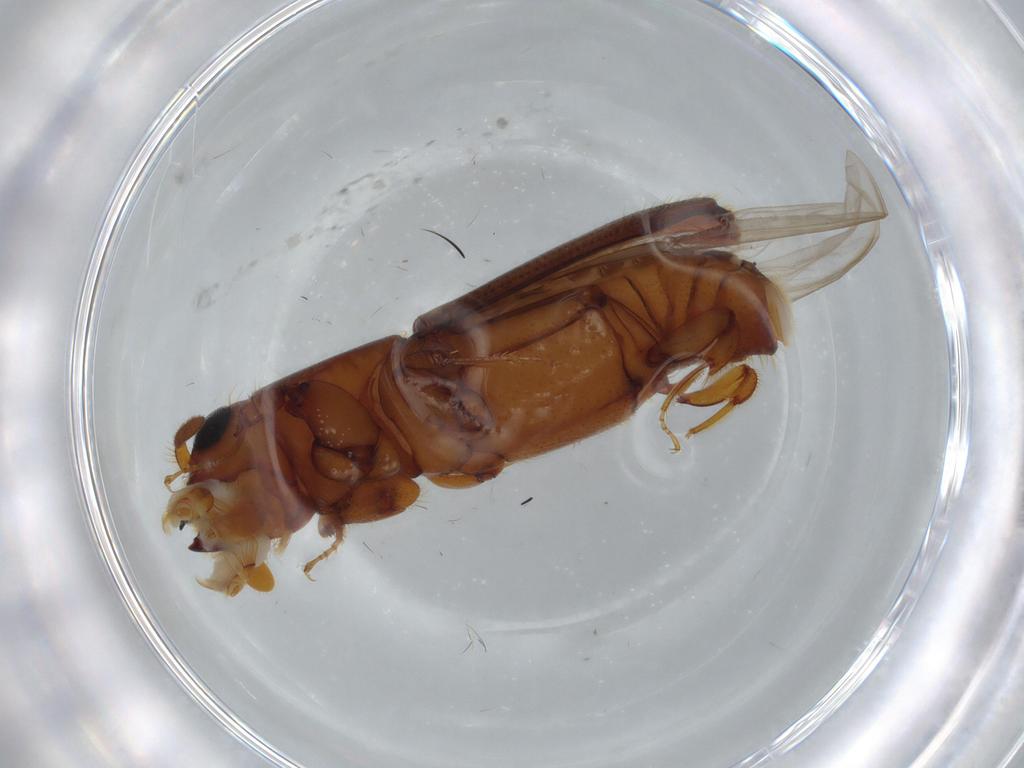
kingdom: Animalia
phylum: Arthropoda
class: Insecta
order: Coleoptera
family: Curculionidae
